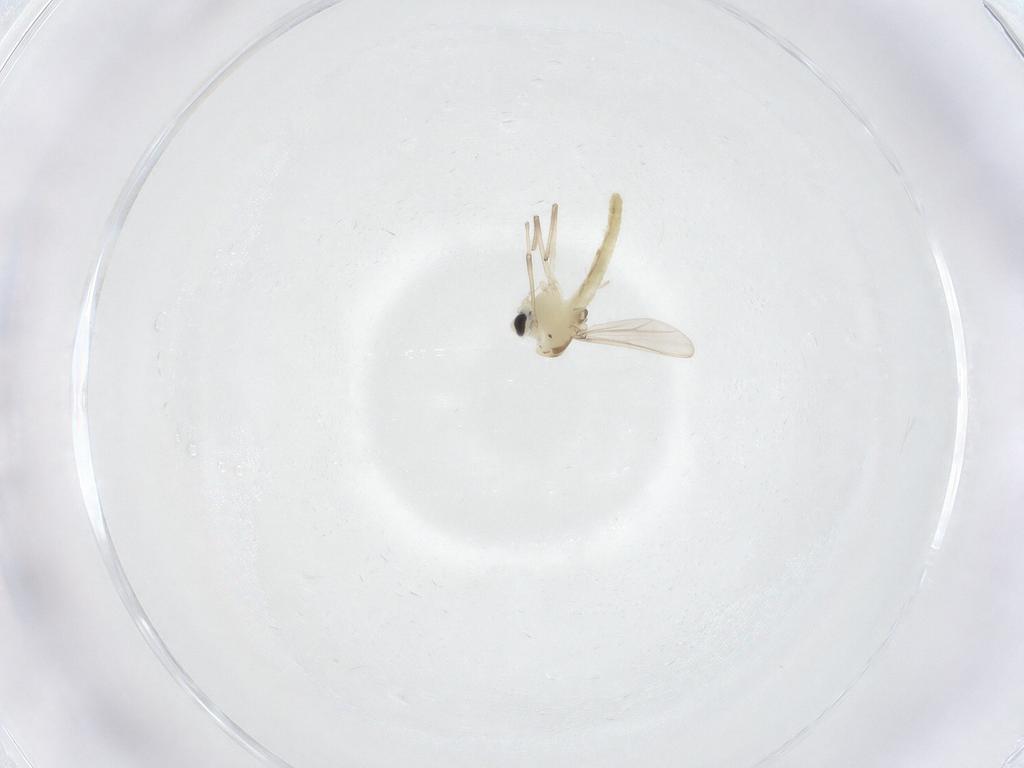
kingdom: Animalia
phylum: Arthropoda
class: Insecta
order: Diptera
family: Chironomidae
